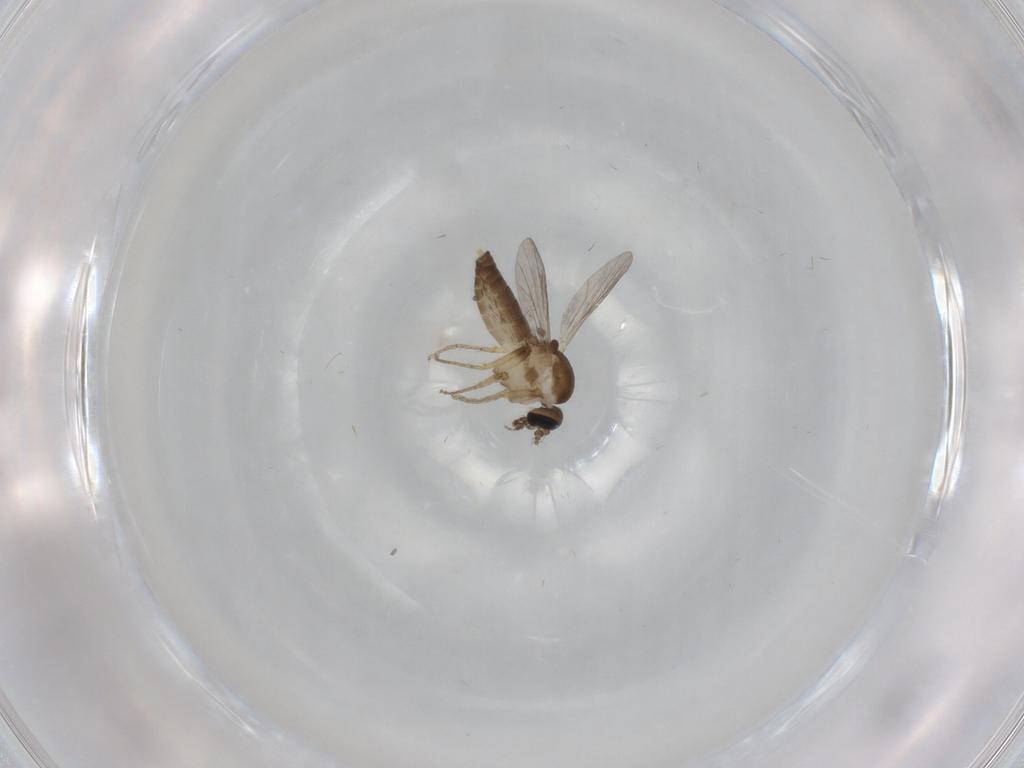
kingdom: Animalia
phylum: Arthropoda
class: Insecta
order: Diptera
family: Ceratopogonidae
